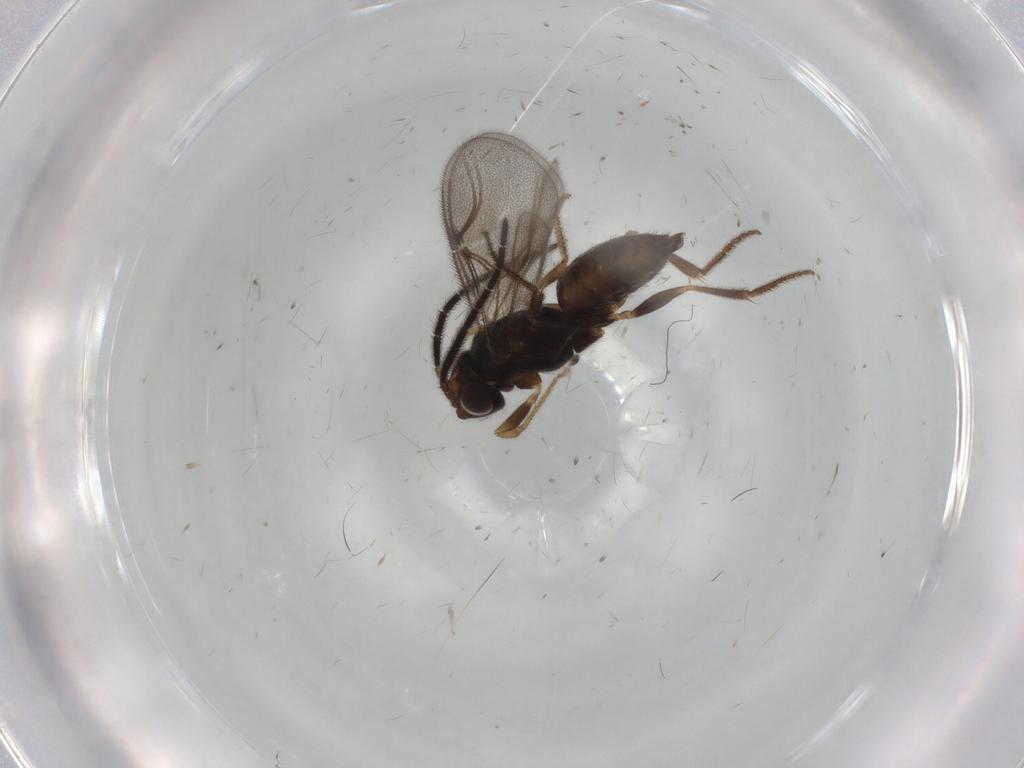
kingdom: Animalia
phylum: Arthropoda
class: Insecta
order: Hymenoptera
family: Dryinidae
